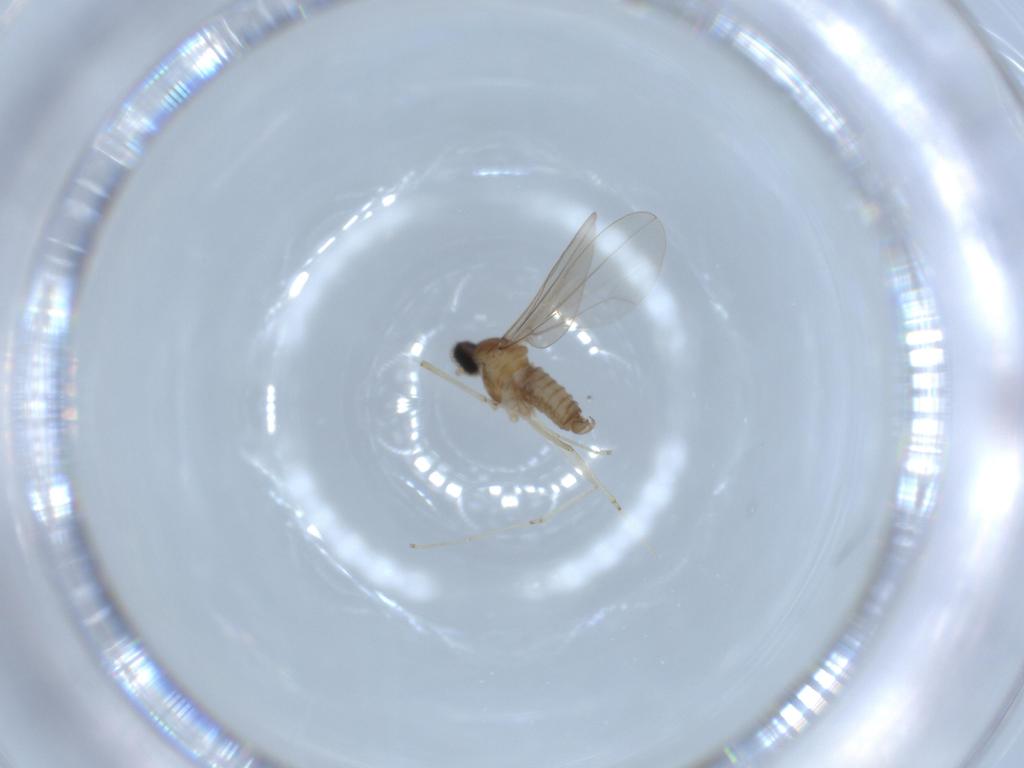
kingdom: Animalia
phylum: Arthropoda
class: Insecta
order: Diptera
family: Cecidomyiidae
